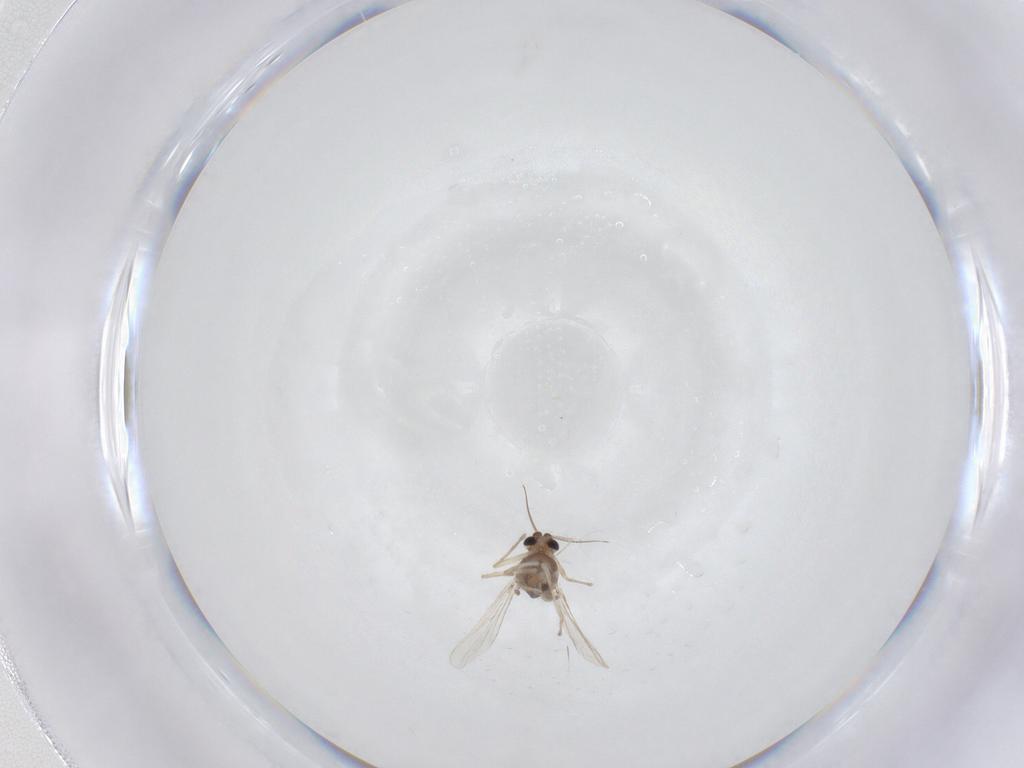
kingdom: Animalia
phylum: Arthropoda
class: Insecta
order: Diptera
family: Chironomidae
